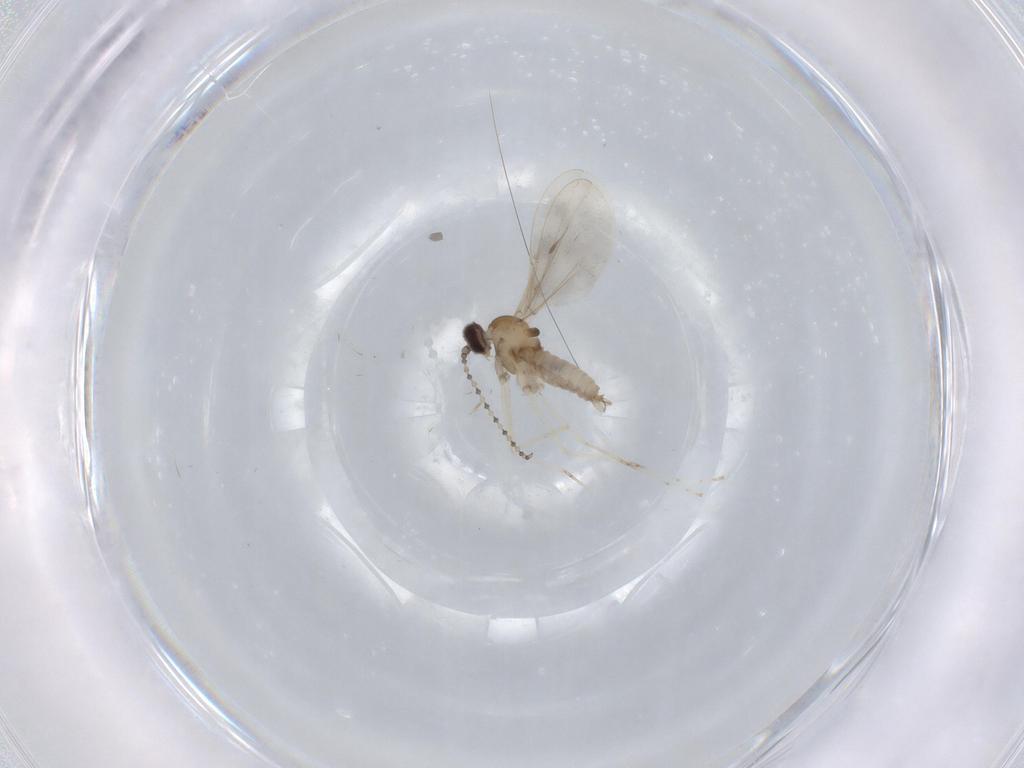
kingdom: Animalia
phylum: Arthropoda
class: Insecta
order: Diptera
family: Cecidomyiidae
